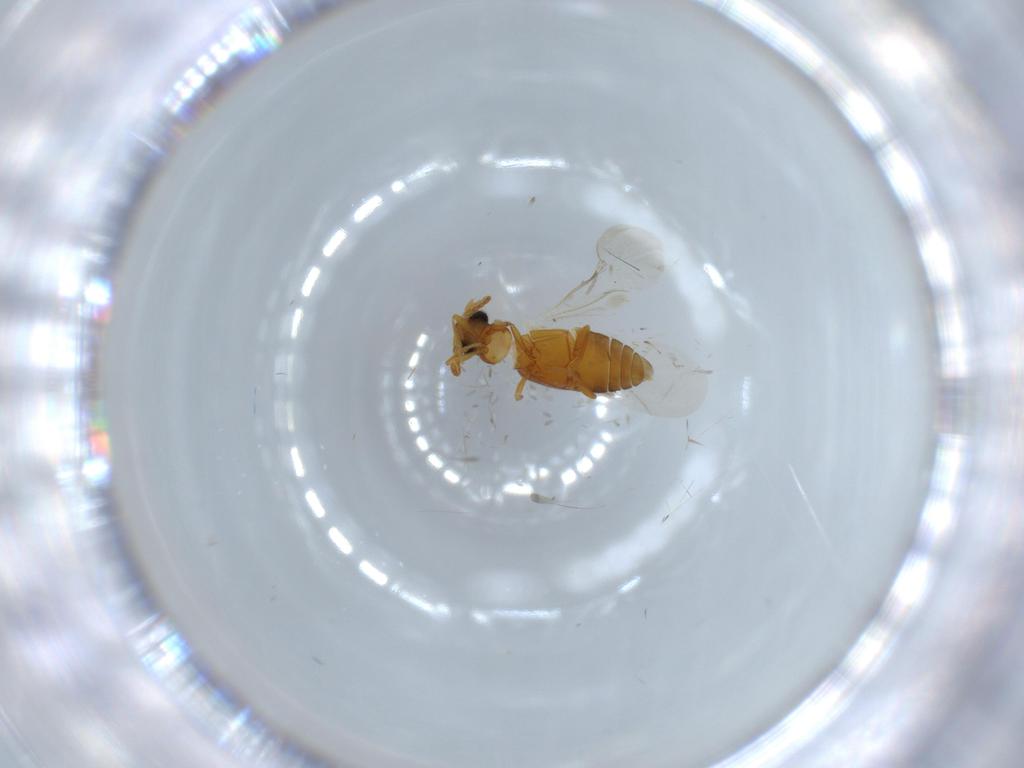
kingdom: Animalia
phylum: Arthropoda
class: Insecta
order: Coleoptera
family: Aderidae
